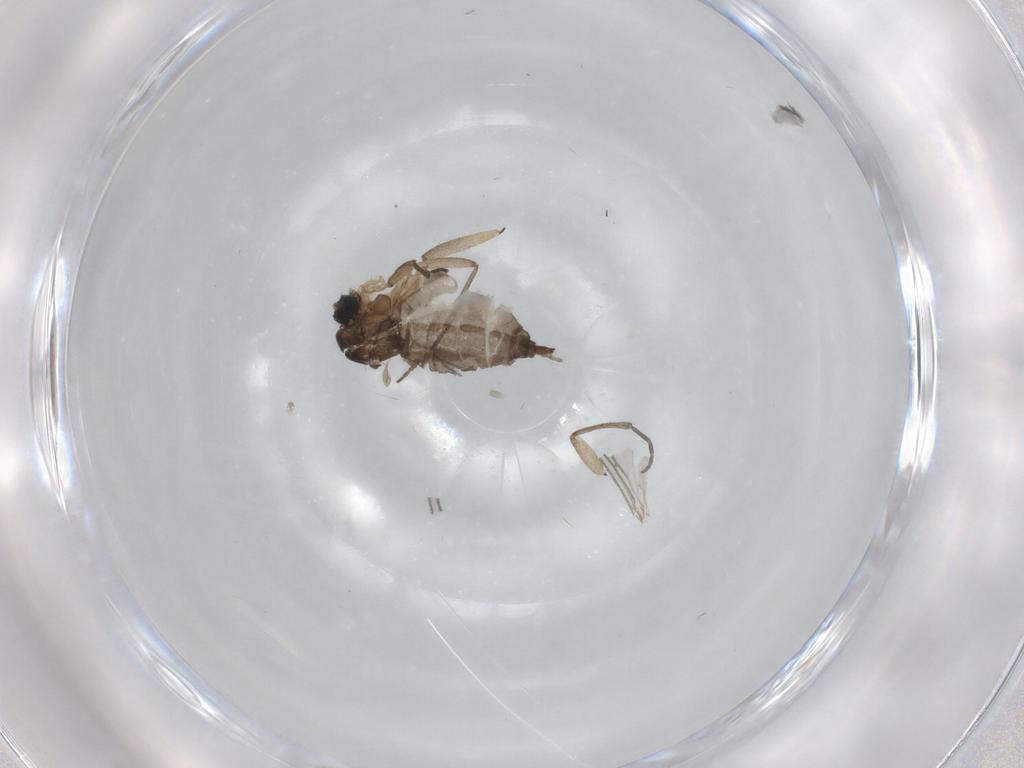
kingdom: Animalia
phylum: Arthropoda
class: Insecta
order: Diptera
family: Sciaridae
